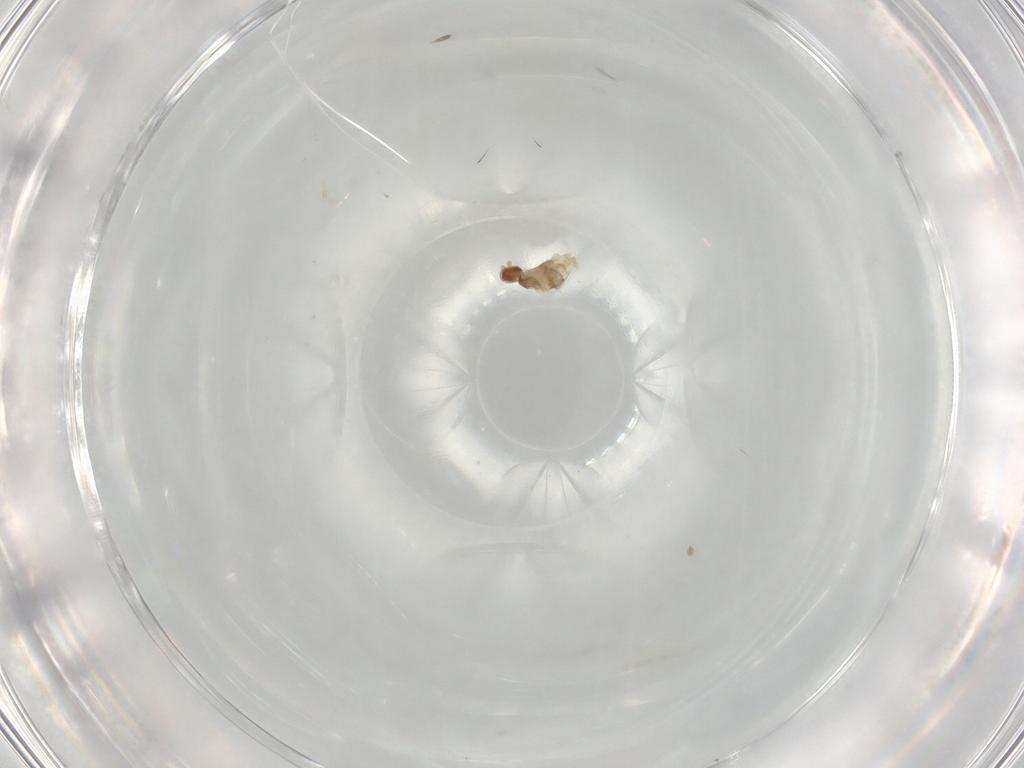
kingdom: Animalia
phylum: Arthropoda
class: Insecta
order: Diptera
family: Cecidomyiidae
